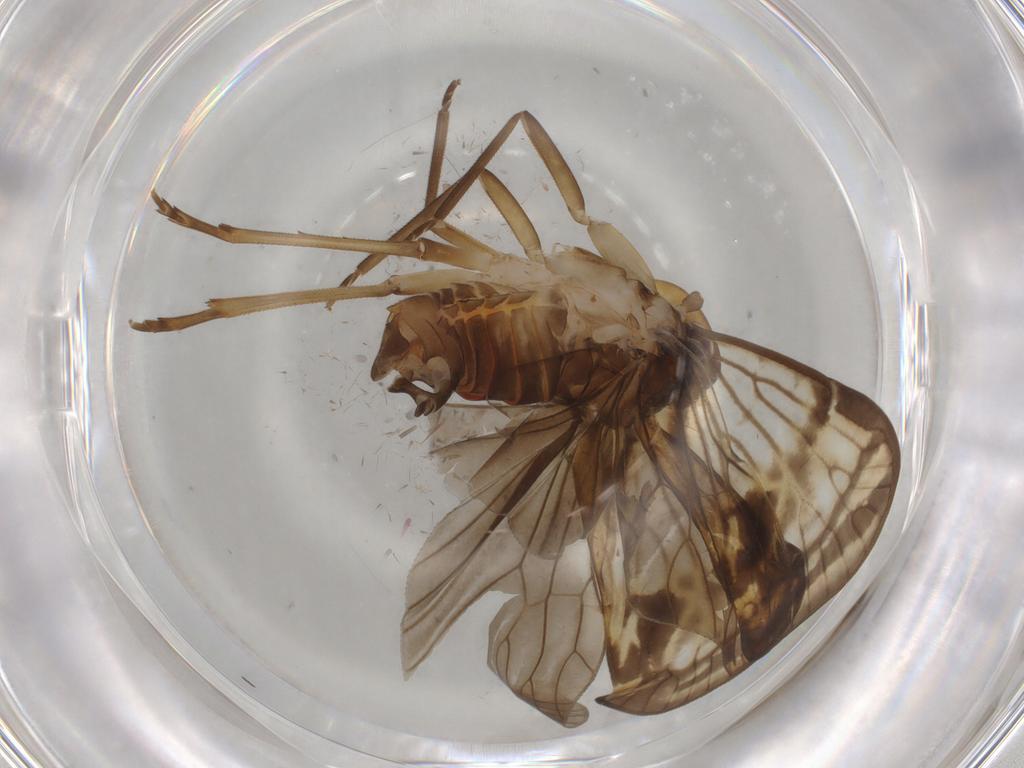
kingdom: Animalia
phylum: Arthropoda
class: Insecta
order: Hemiptera
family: Cixiidae
